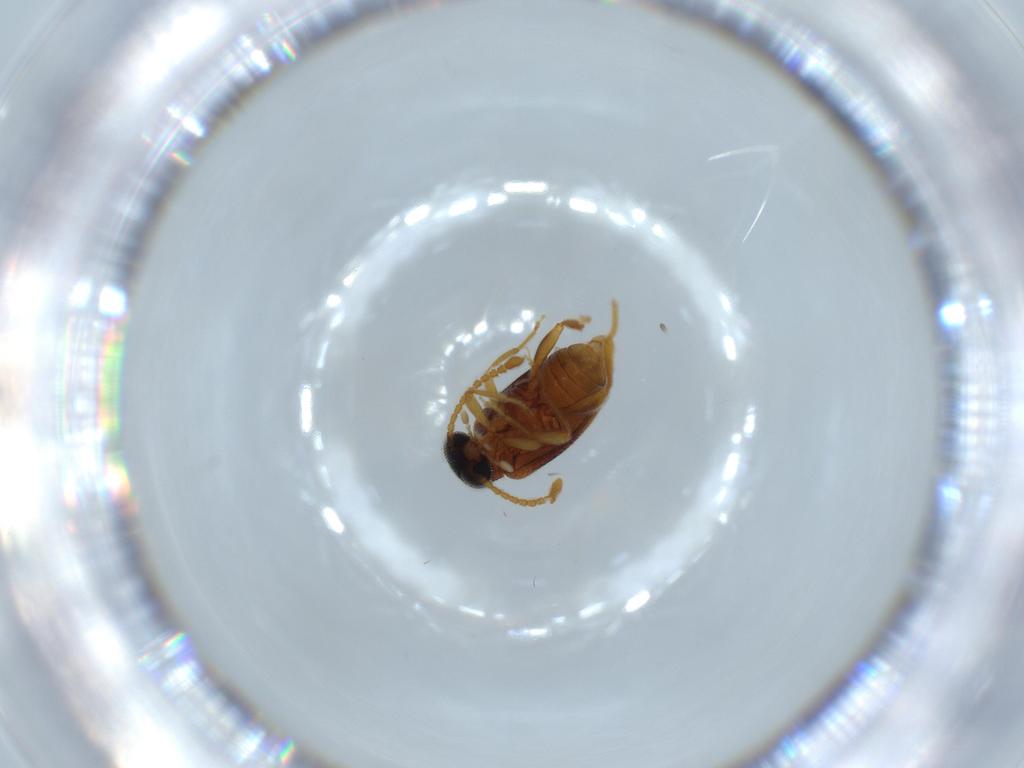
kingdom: Animalia
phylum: Arthropoda
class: Insecta
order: Coleoptera
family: Aderidae
